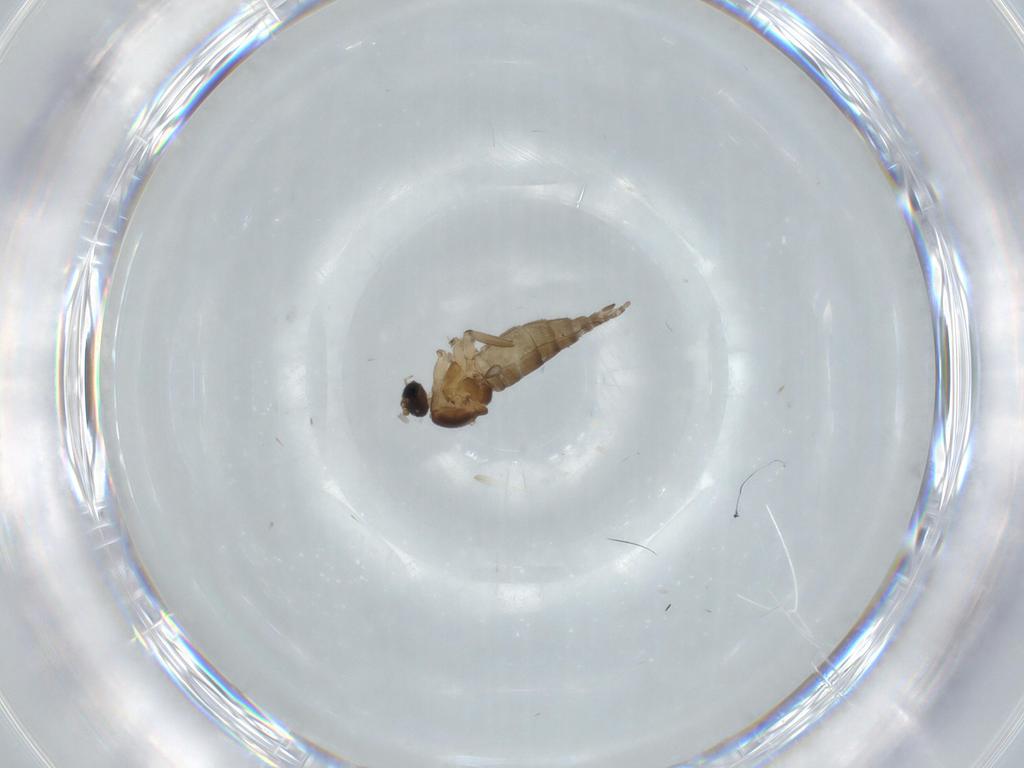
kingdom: Animalia
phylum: Arthropoda
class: Insecta
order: Diptera
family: Sciaridae
